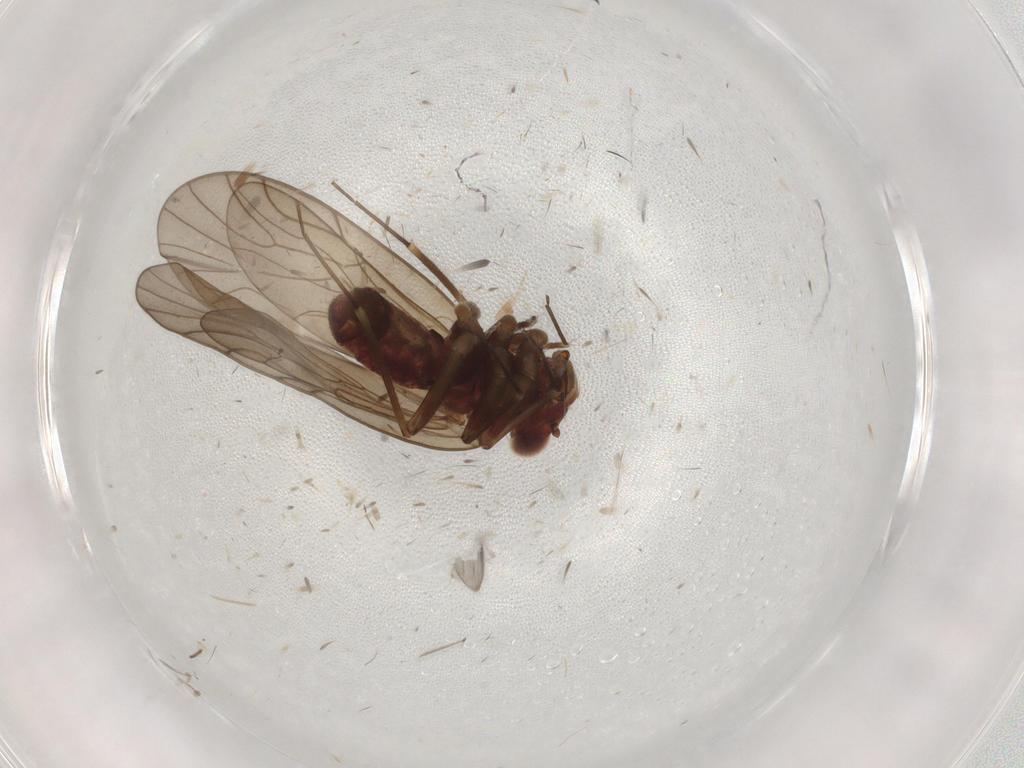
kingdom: Animalia
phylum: Arthropoda
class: Insecta
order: Psocodea
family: Philotarsidae
